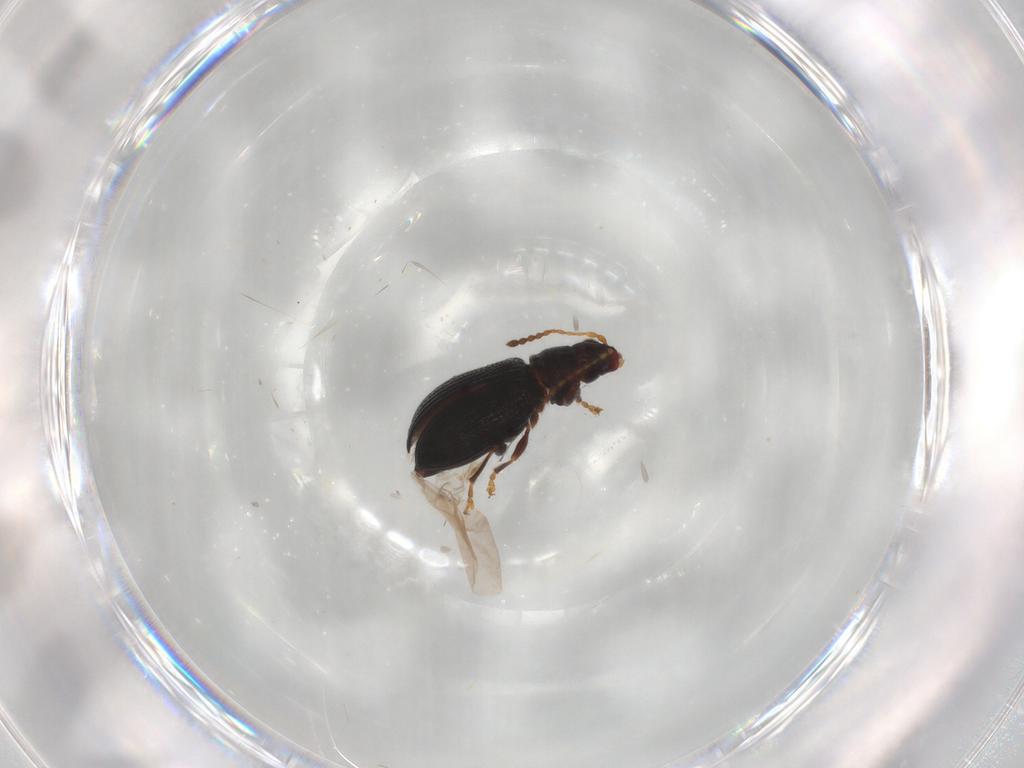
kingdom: Animalia
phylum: Arthropoda
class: Insecta
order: Coleoptera
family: Chrysomelidae
